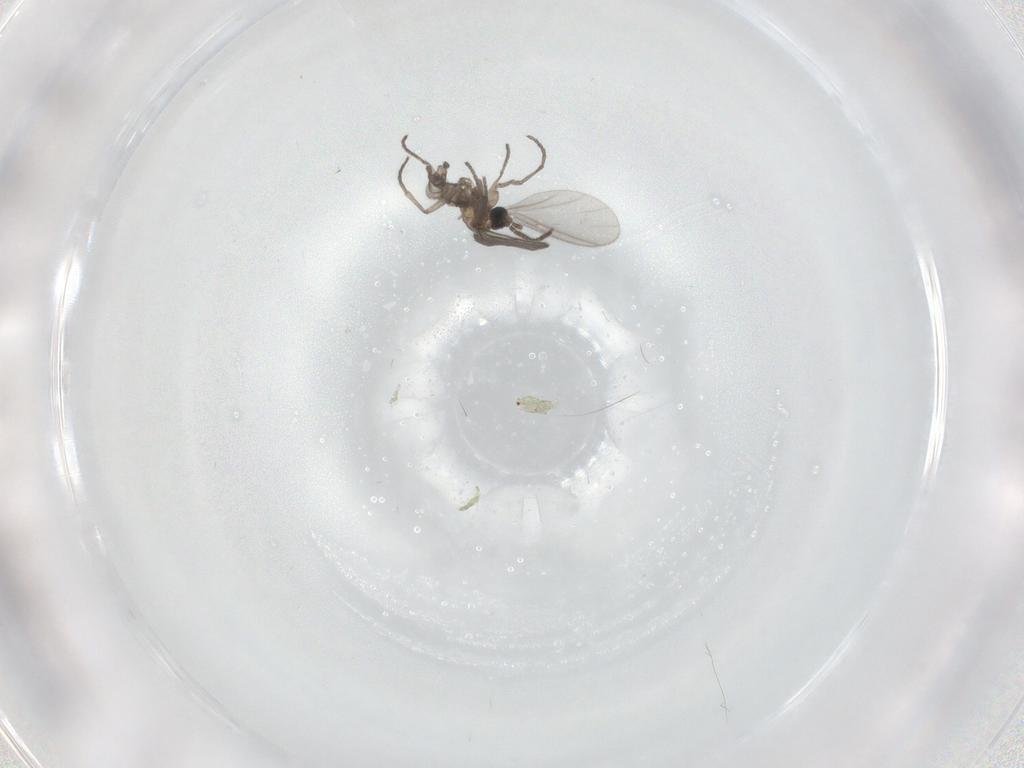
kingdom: Animalia
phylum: Arthropoda
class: Insecta
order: Diptera
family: Sciaridae
